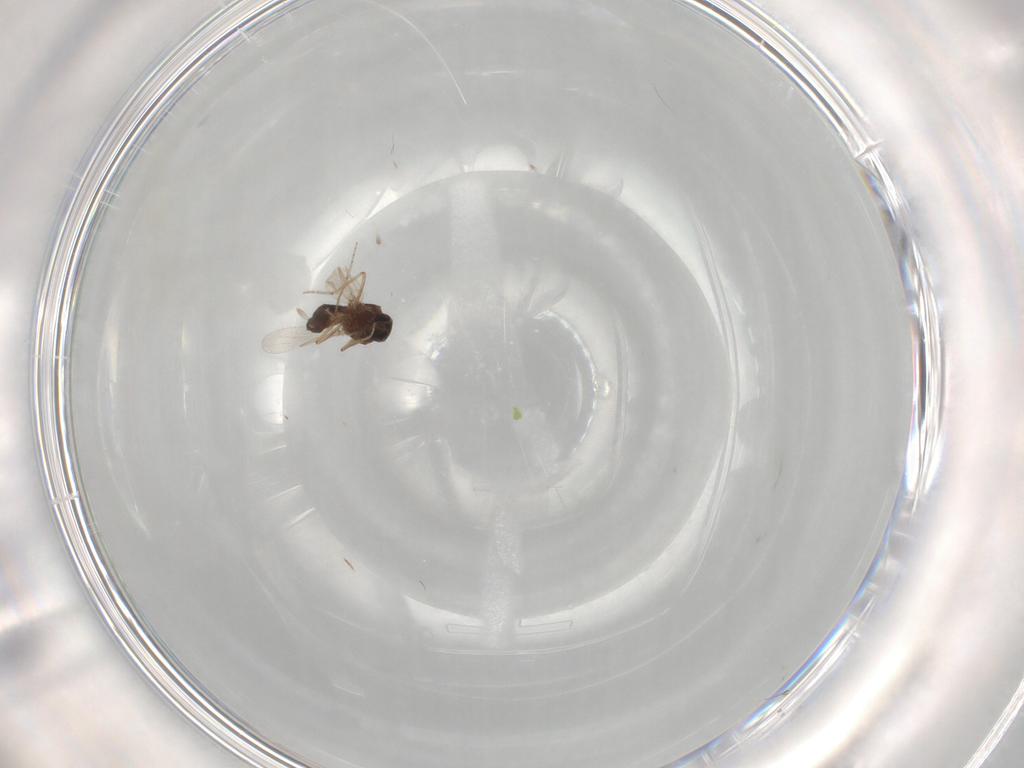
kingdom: Animalia
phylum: Arthropoda
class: Insecta
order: Diptera
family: Ceratopogonidae
